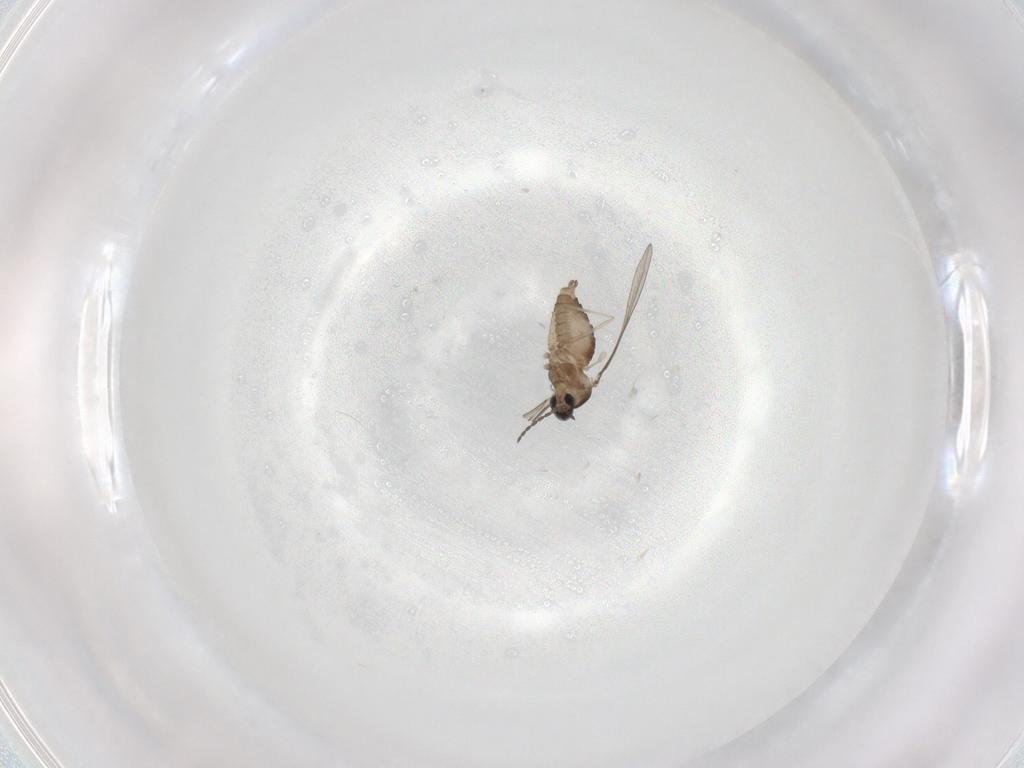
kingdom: Animalia
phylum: Arthropoda
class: Insecta
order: Diptera
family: Cecidomyiidae
